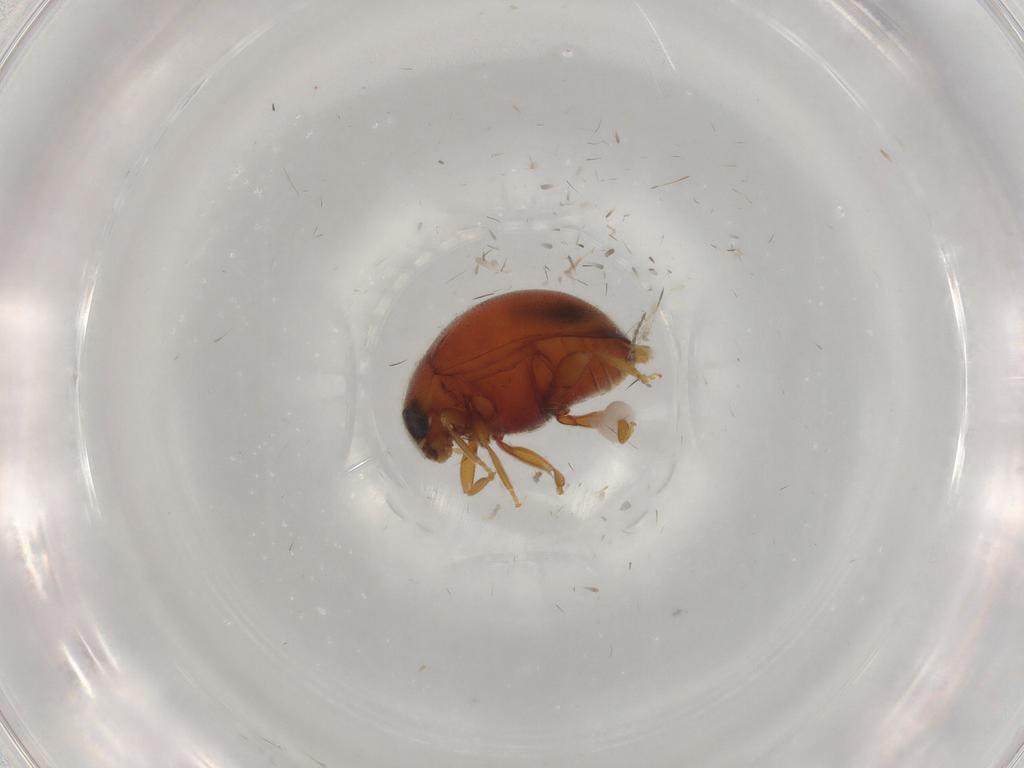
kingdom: Animalia
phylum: Arthropoda
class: Insecta
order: Coleoptera
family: Coccinellidae
